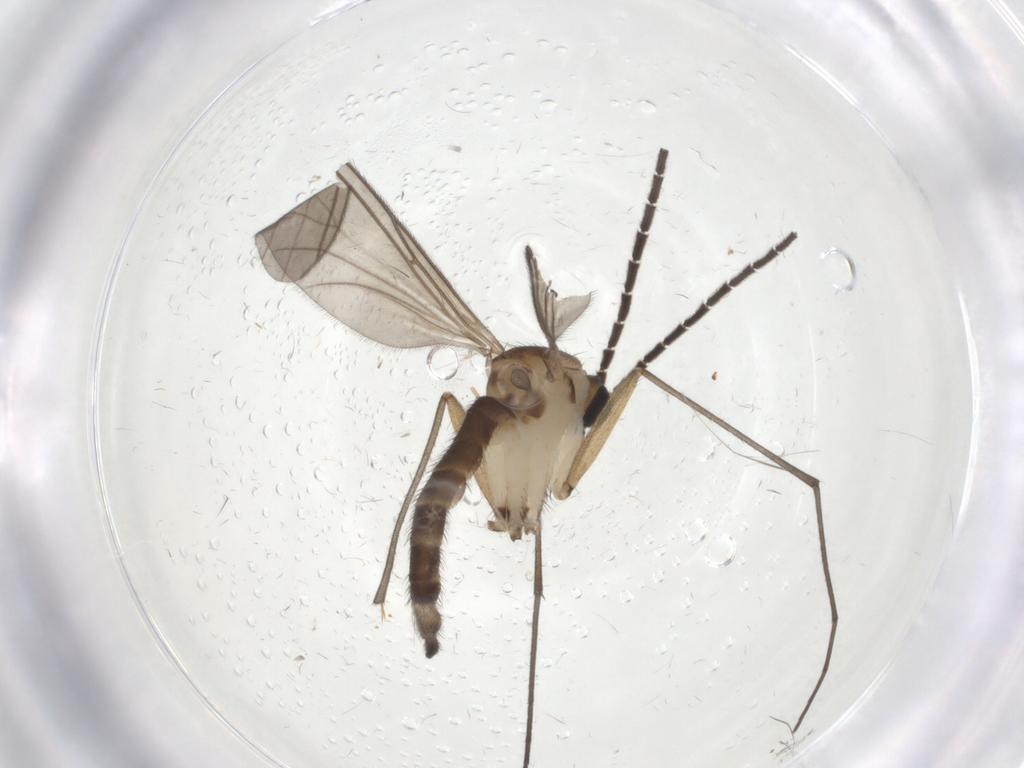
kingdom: Animalia
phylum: Arthropoda
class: Insecta
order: Diptera
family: Sciaridae
